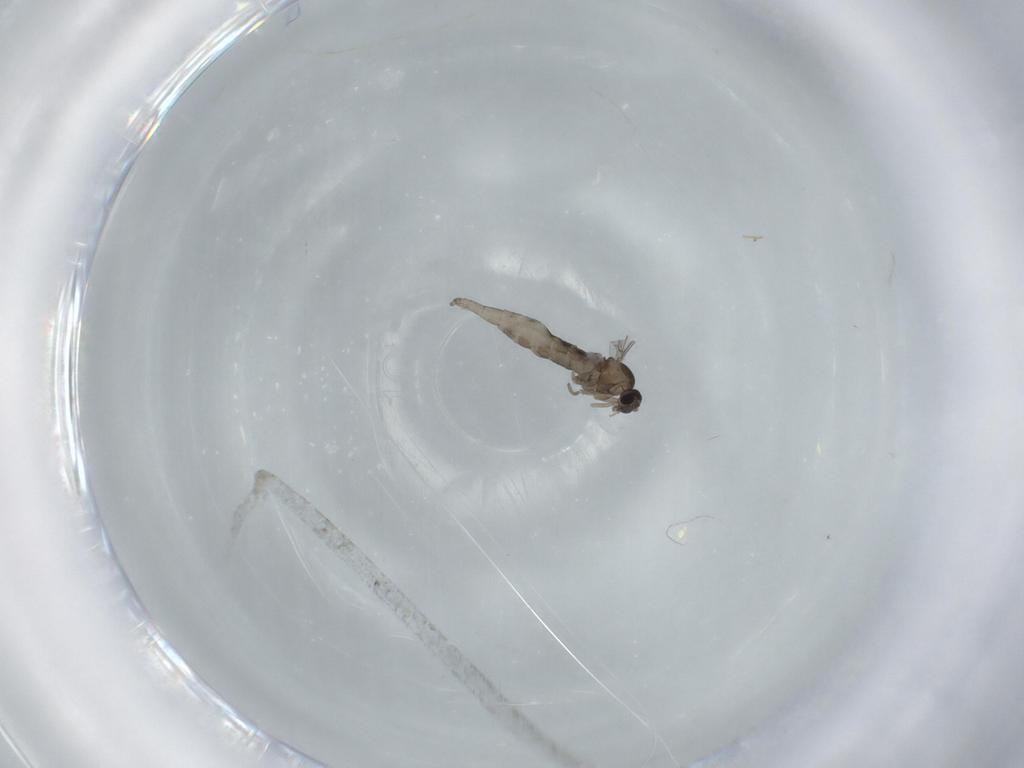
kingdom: Animalia
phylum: Arthropoda
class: Insecta
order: Diptera
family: Cecidomyiidae
